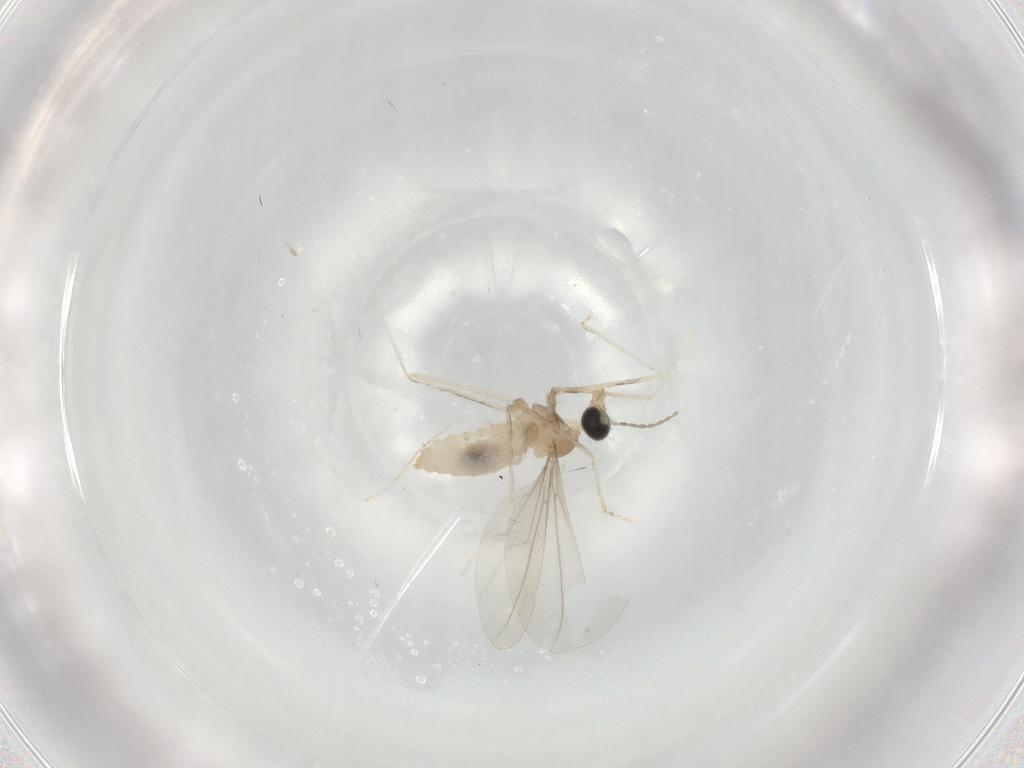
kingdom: Animalia
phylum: Arthropoda
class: Insecta
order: Diptera
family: Cecidomyiidae
